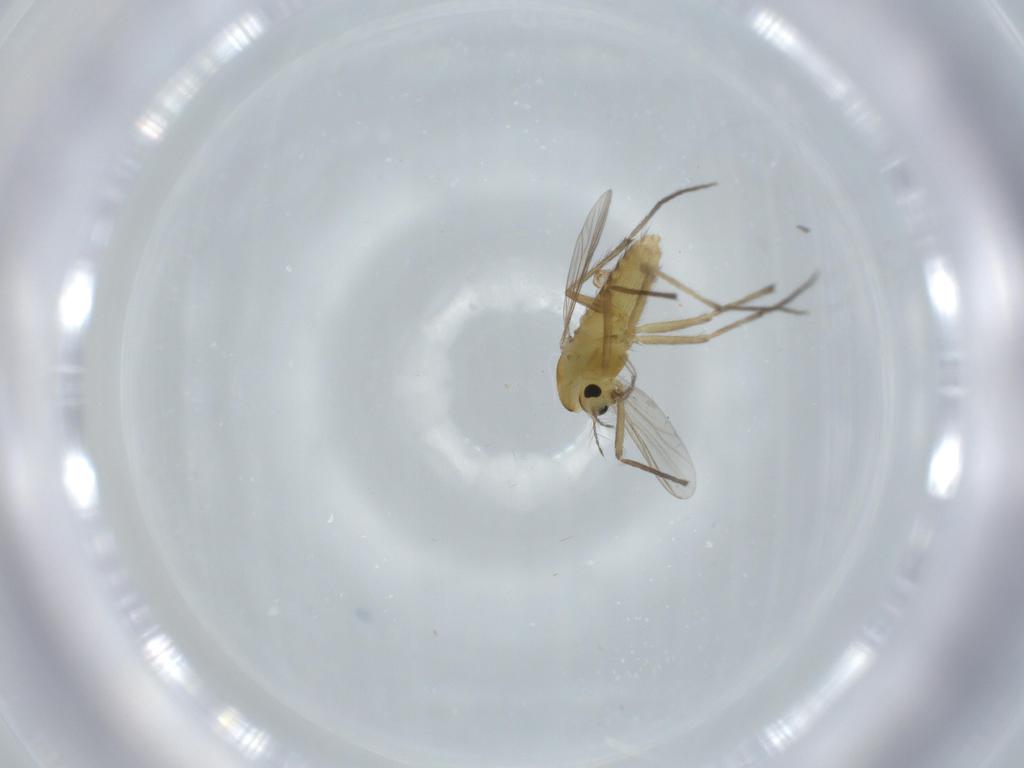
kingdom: Animalia
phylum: Arthropoda
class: Insecta
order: Diptera
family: Chironomidae
